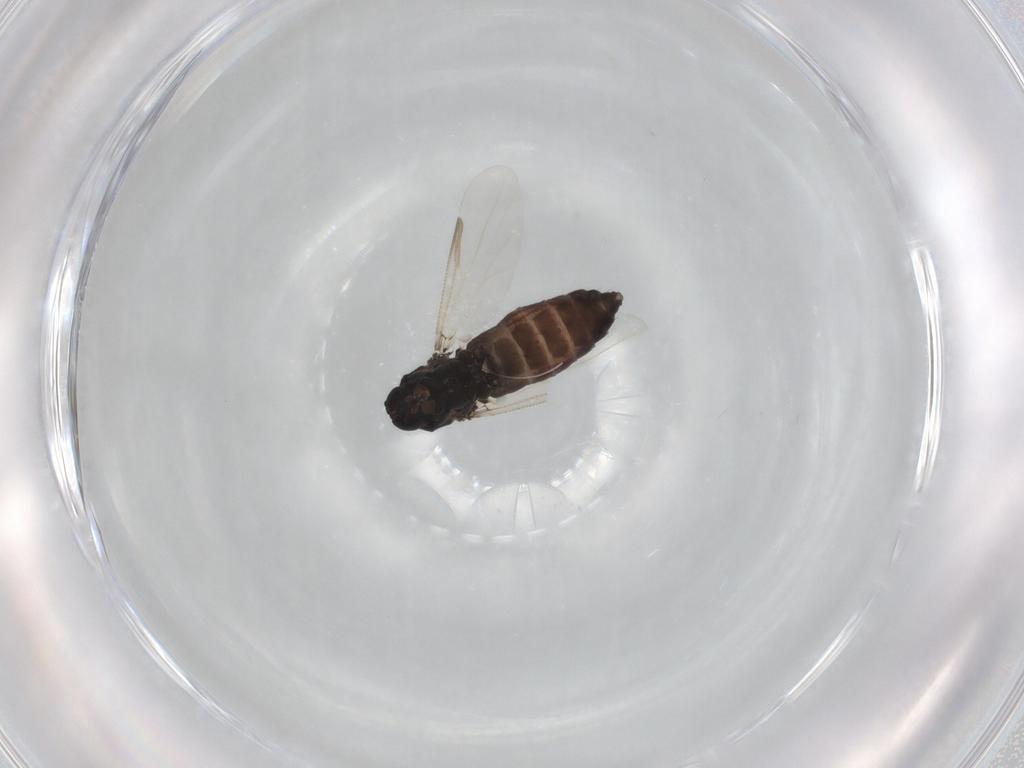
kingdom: Animalia
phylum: Arthropoda
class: Insecta
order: Diptera
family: Ceratopogonidae
